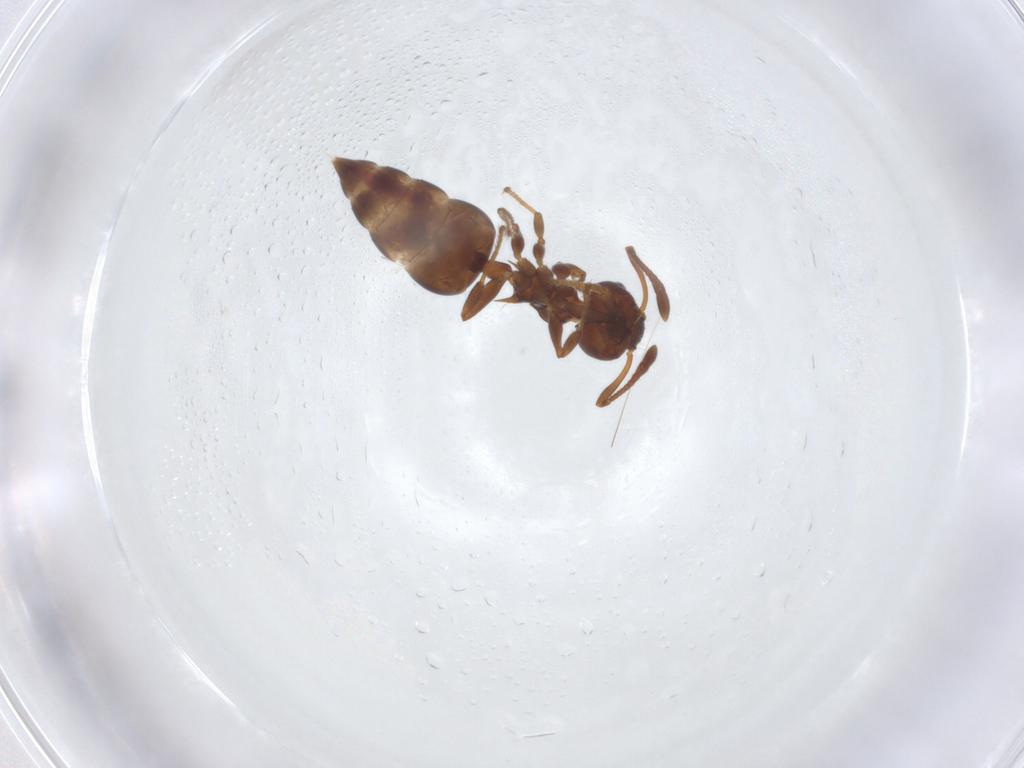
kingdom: Animalia
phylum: Arthropoda
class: Insecta
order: Hymenoptera
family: Formicidae
